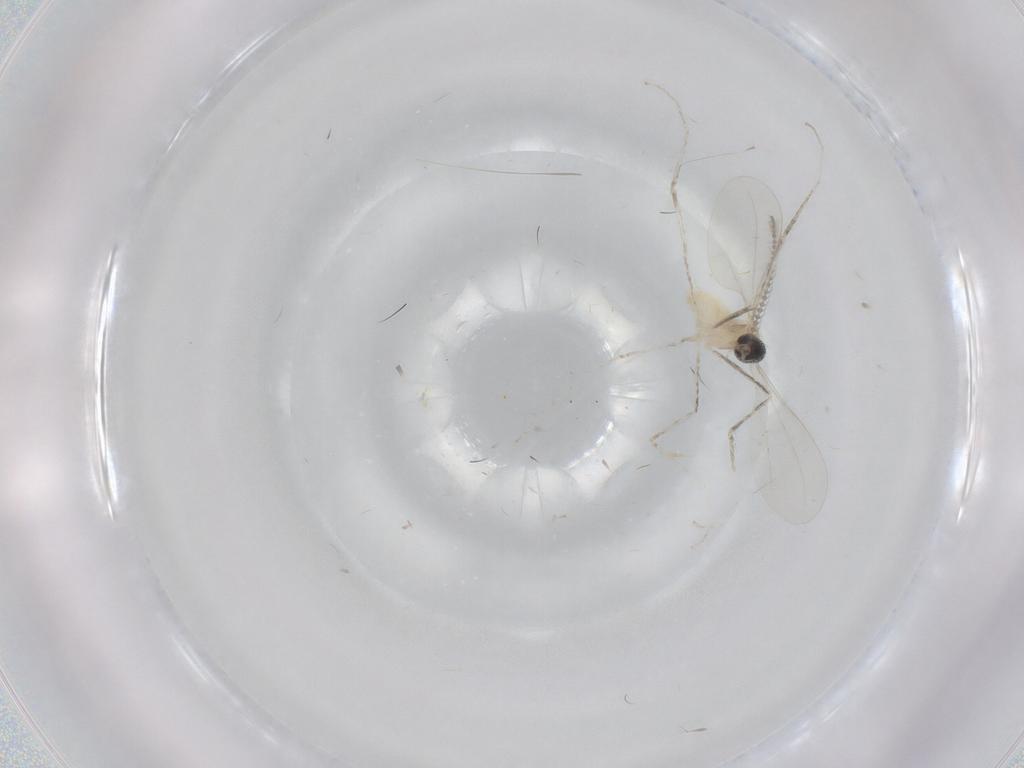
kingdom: Animalia
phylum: Arthropoda
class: Insecta
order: Diptera
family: Cecidomyiidae
